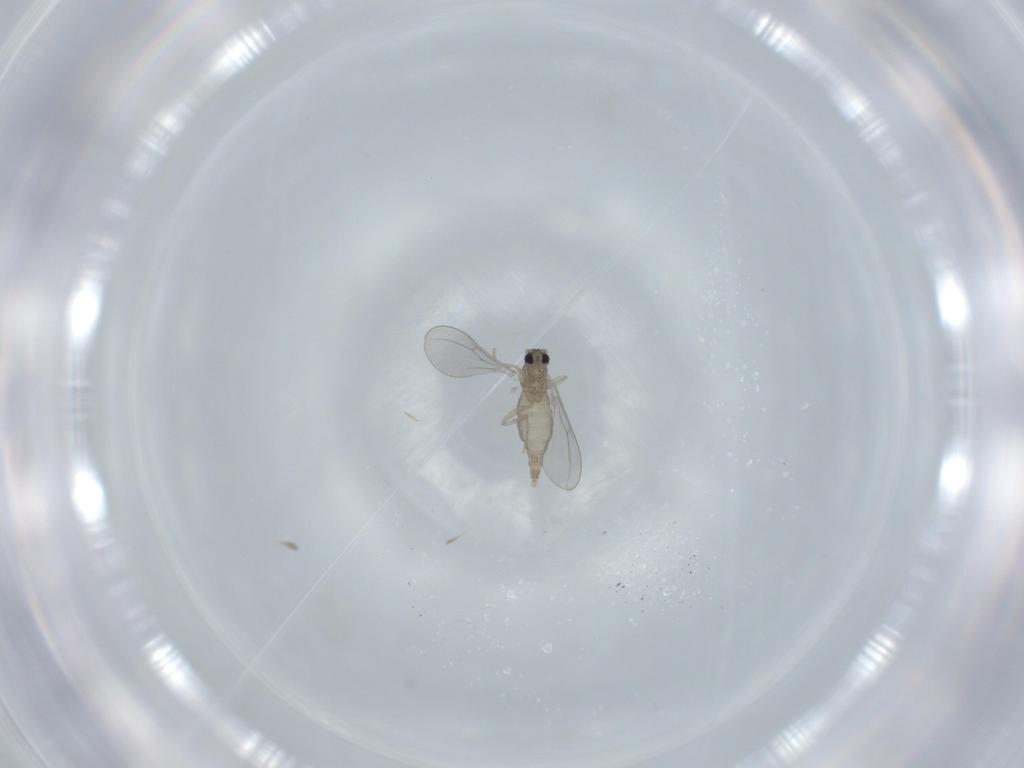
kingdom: Animalia
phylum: Arthropoda
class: Insecta
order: Diptera
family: Cecidomyiidae
